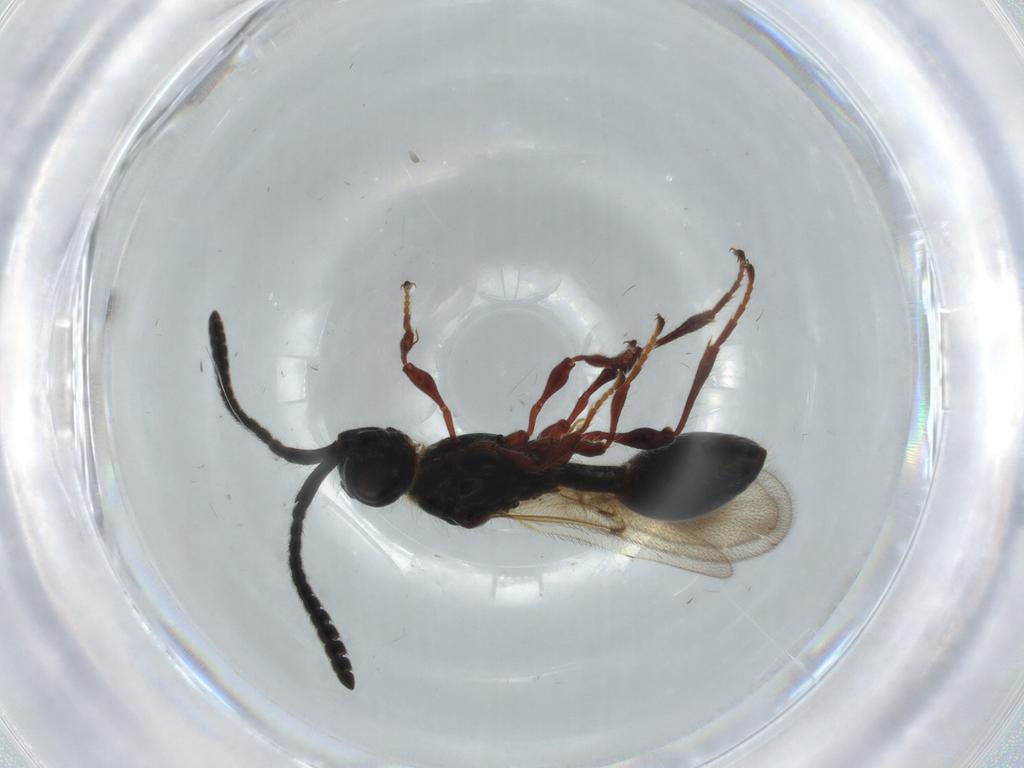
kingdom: Animalia
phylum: Arthropoda
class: Insecta
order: Hymenoptera
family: Diapriidae
